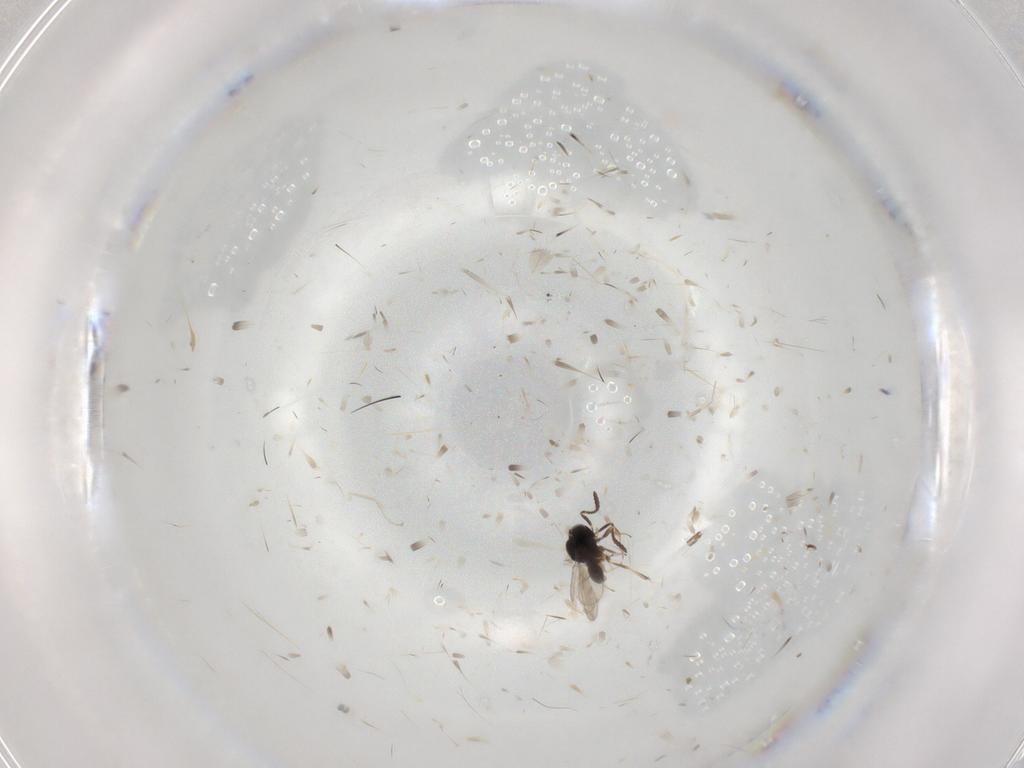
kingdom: Animalia
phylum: Arthropoda
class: Insecta
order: Hymenoptera
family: Scelionidae
